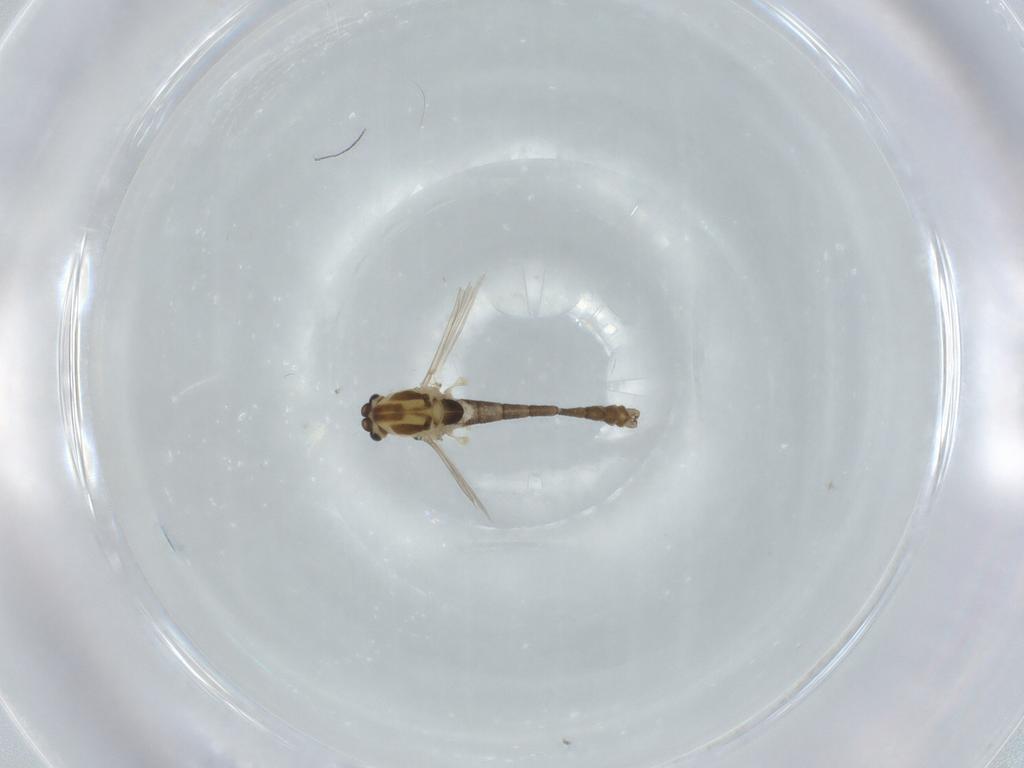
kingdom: Animalia
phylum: Arthropoda
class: Insecta
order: Diptera
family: Chironomidae
